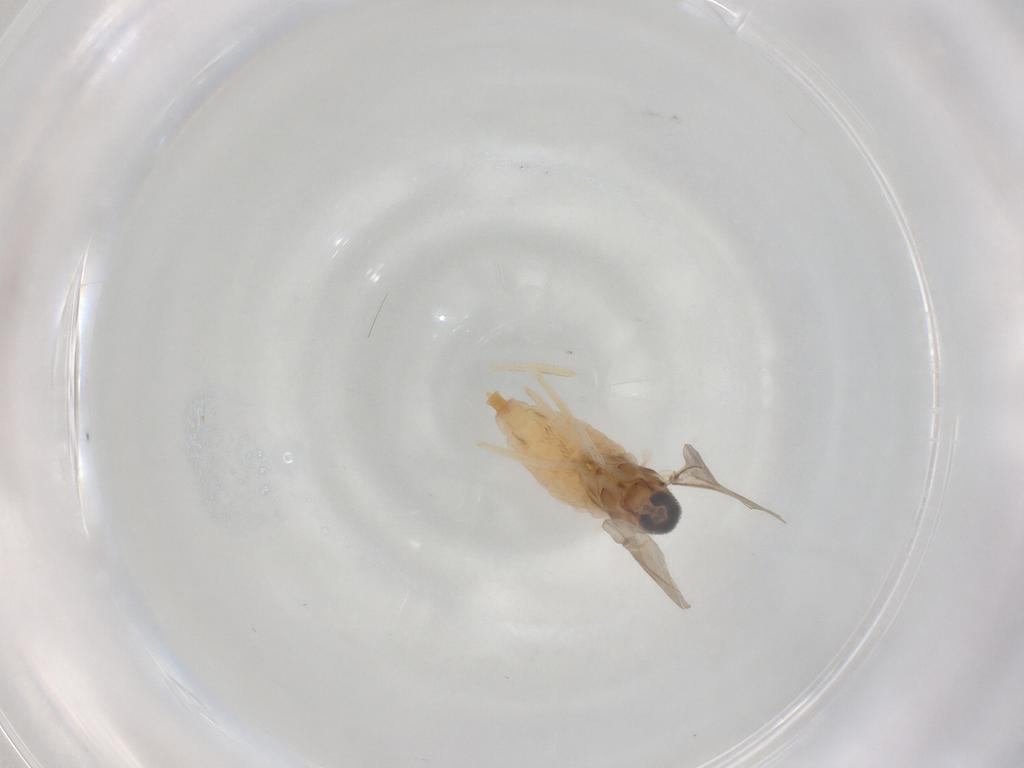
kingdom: Animalia
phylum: Arthropoda
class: Insecta
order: Diptera
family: Cecidomyiidae
